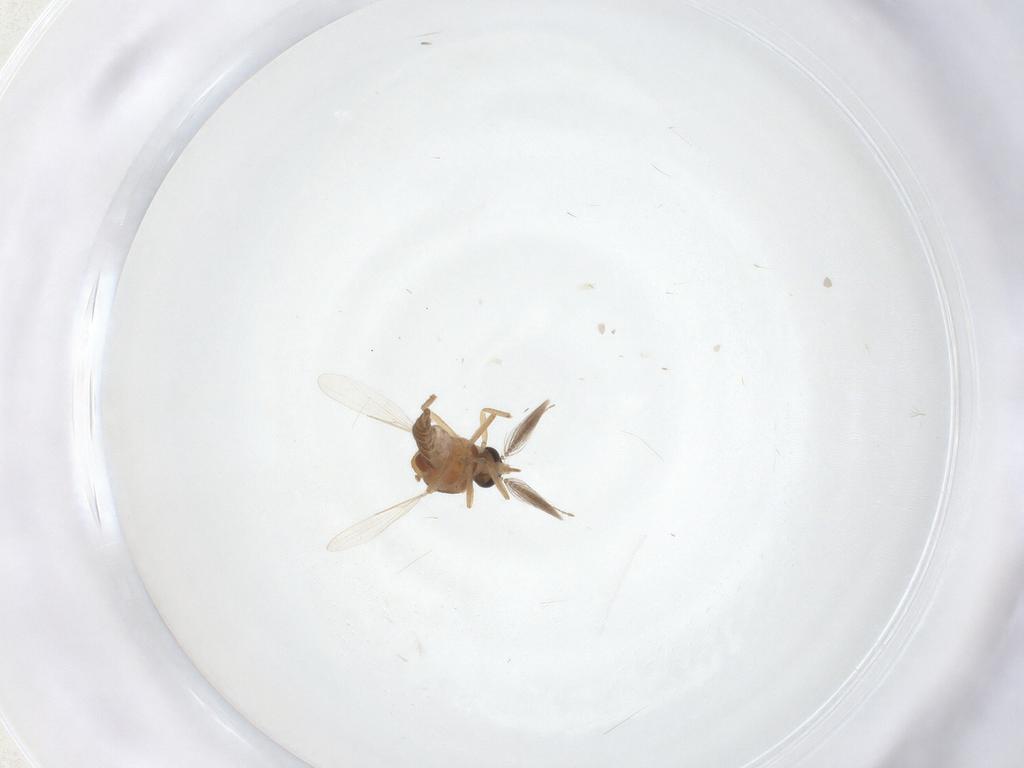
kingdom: Animalia
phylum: Arthropoda
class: Insecta
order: Diptera
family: Ceratopogonidae
